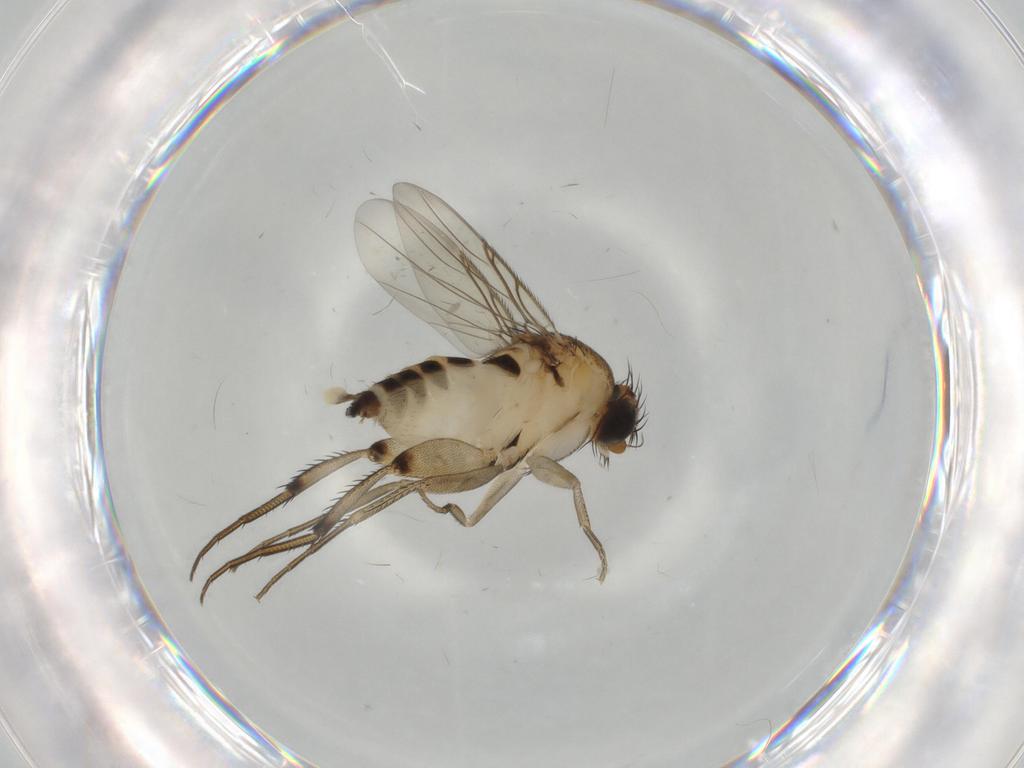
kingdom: Animalia
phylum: Arthropoda
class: Insecta
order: Diptera
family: Phoridae
